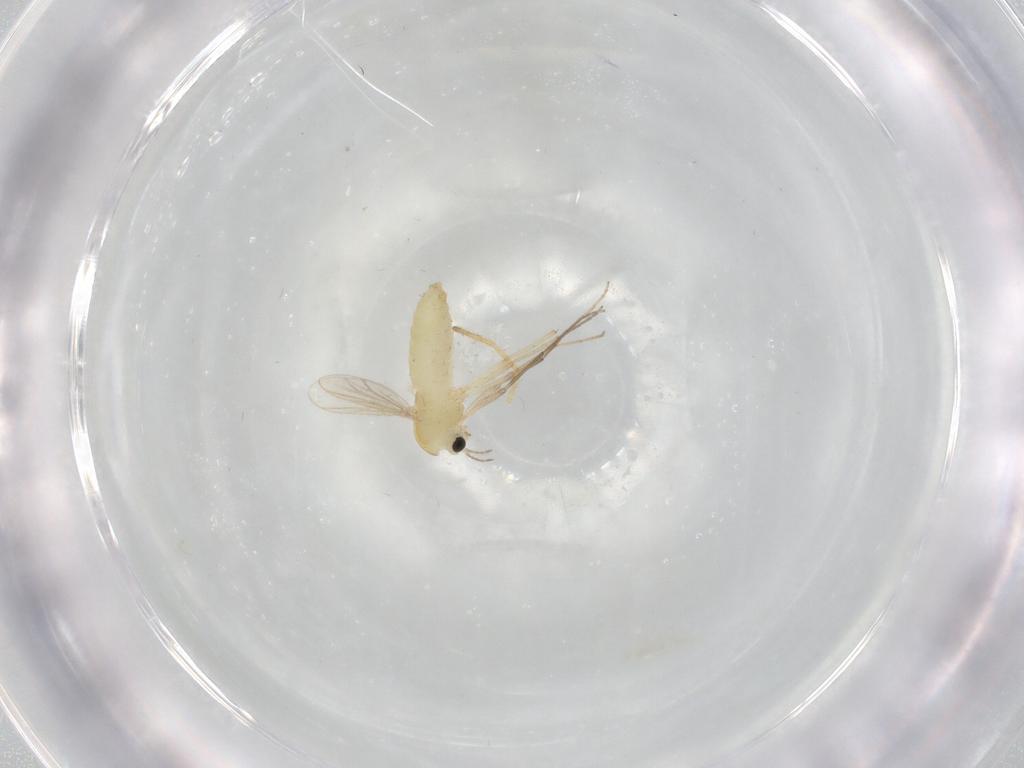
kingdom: Animalia
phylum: Arthropoda
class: Insecta
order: Diptera
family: Chironomidae
